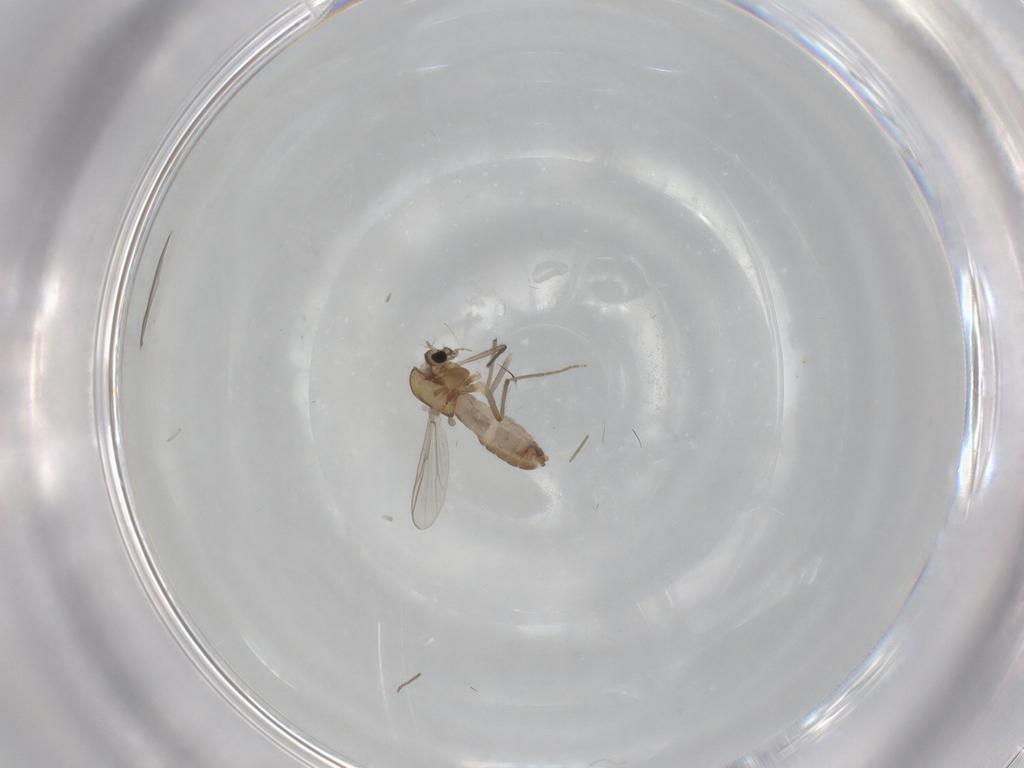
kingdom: Animalia
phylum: Arthropoda
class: Insecta
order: Diptera
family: Chironomidae
